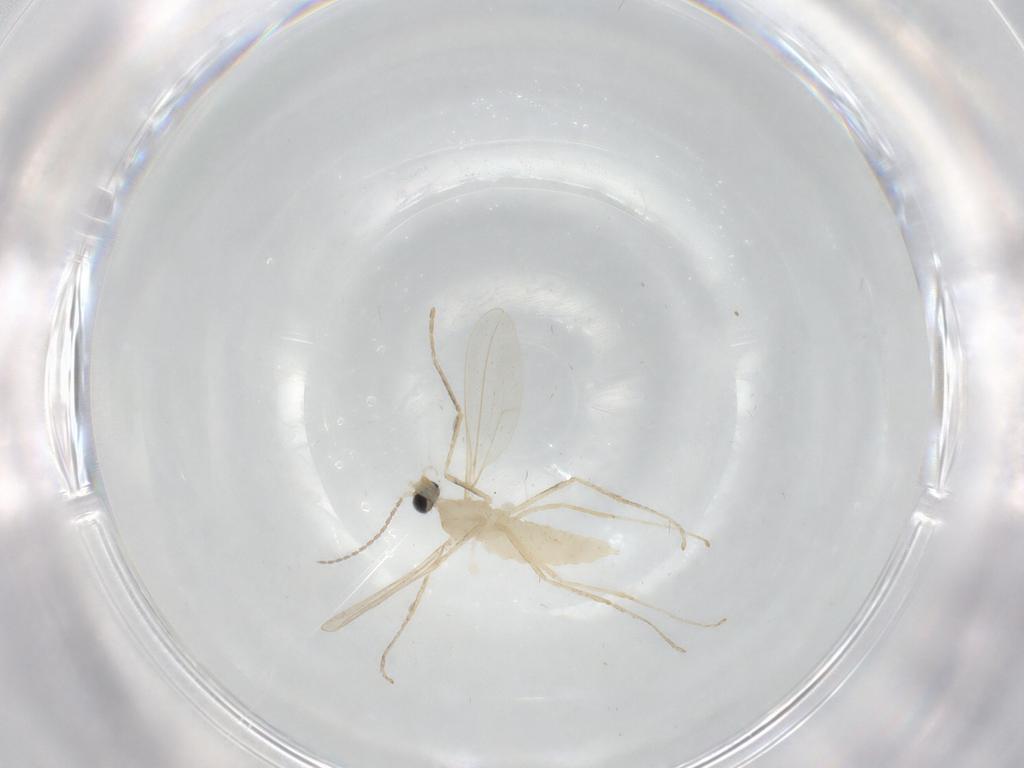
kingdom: Animalia
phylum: Arthropoda
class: Insecta
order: Diptera
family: Cecidomyiidae
